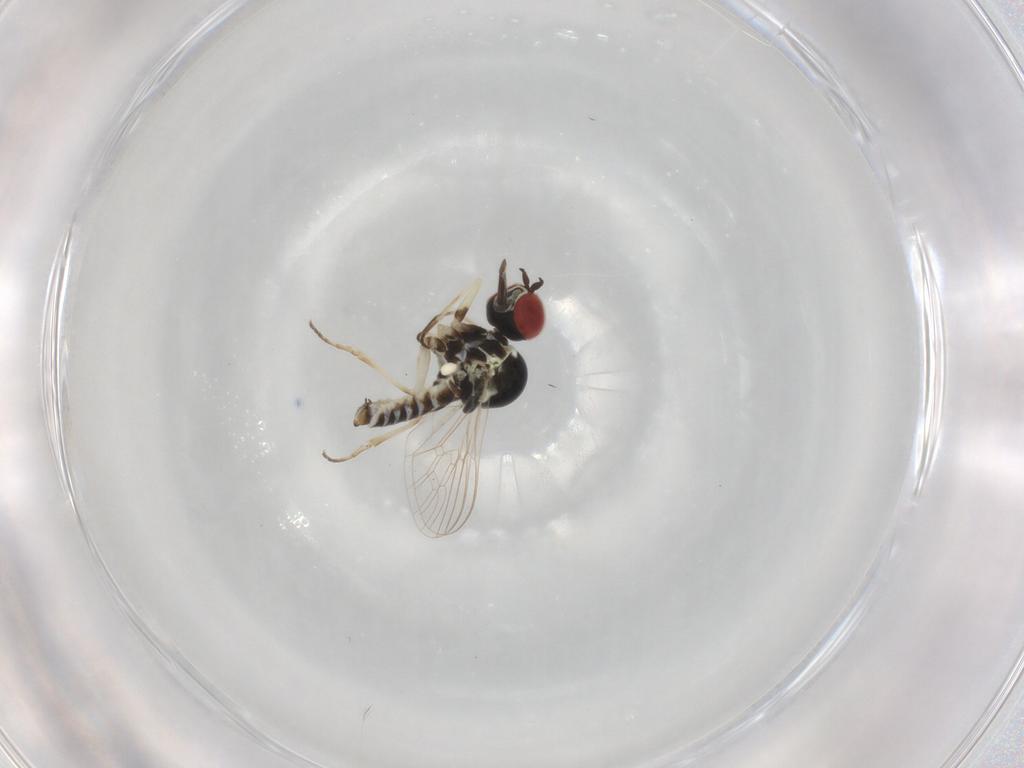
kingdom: Animalia
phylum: Arthropoda
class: Insecta
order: Diptera
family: Bombyliidae
